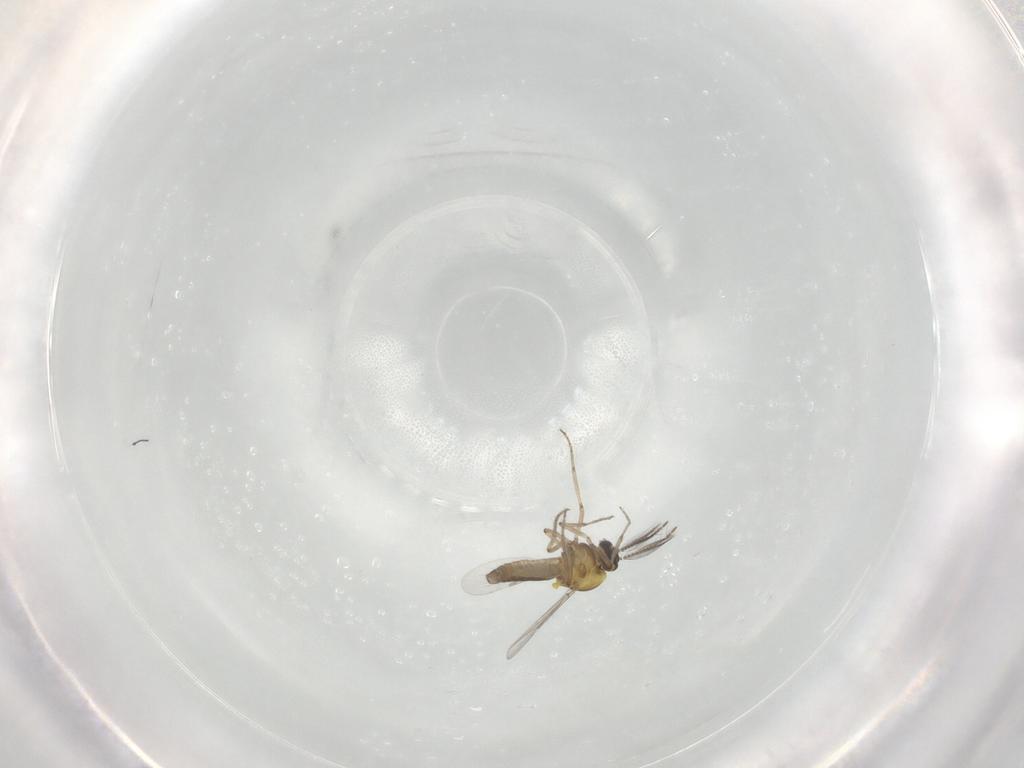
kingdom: Animalia
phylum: Arthropoda
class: Insecta
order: Diptera
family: Ceratopogonidae
